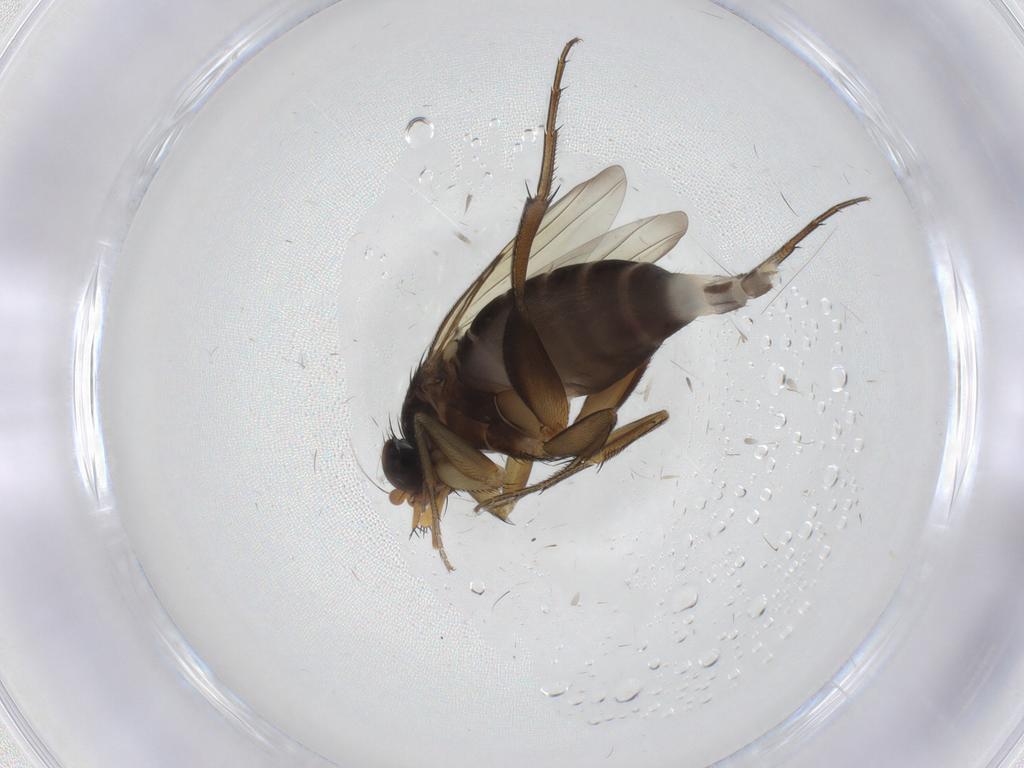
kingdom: Animalia
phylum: Arthropoda
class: Insecta
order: Diptera
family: Phoridae
